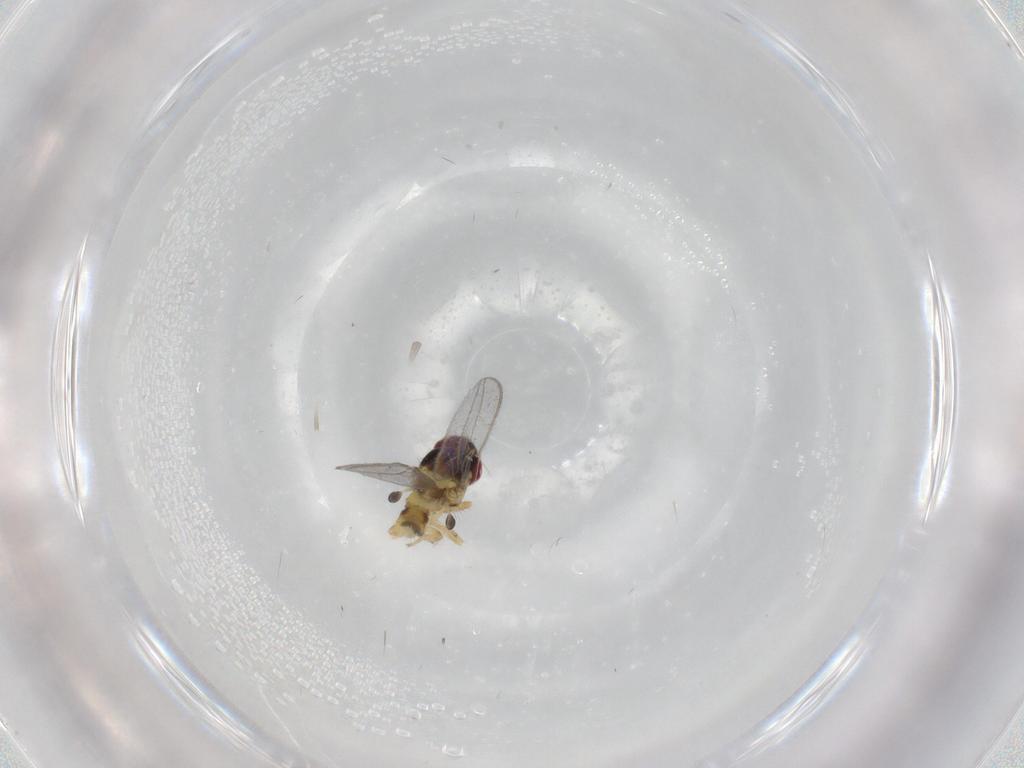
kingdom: Animalia
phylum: Arthropoda
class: Insecta
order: Diptera
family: Asteiidae
